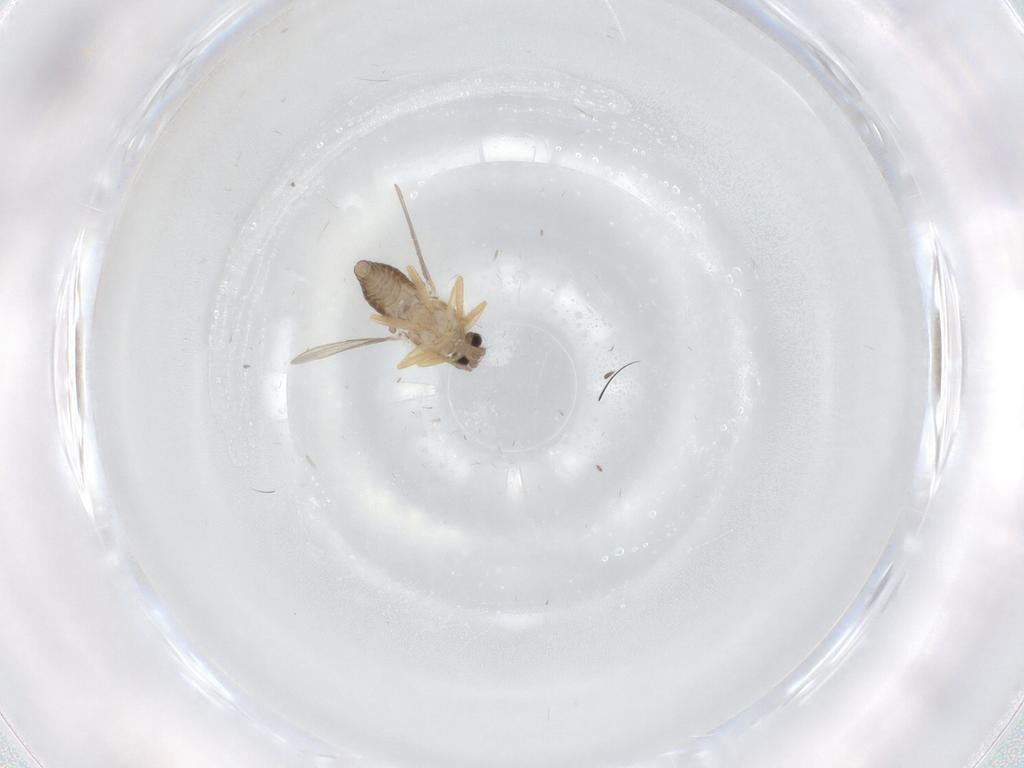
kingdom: Animalia
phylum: Arthropoda
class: Insecta
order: Diptera
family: Ceratopogonidae
